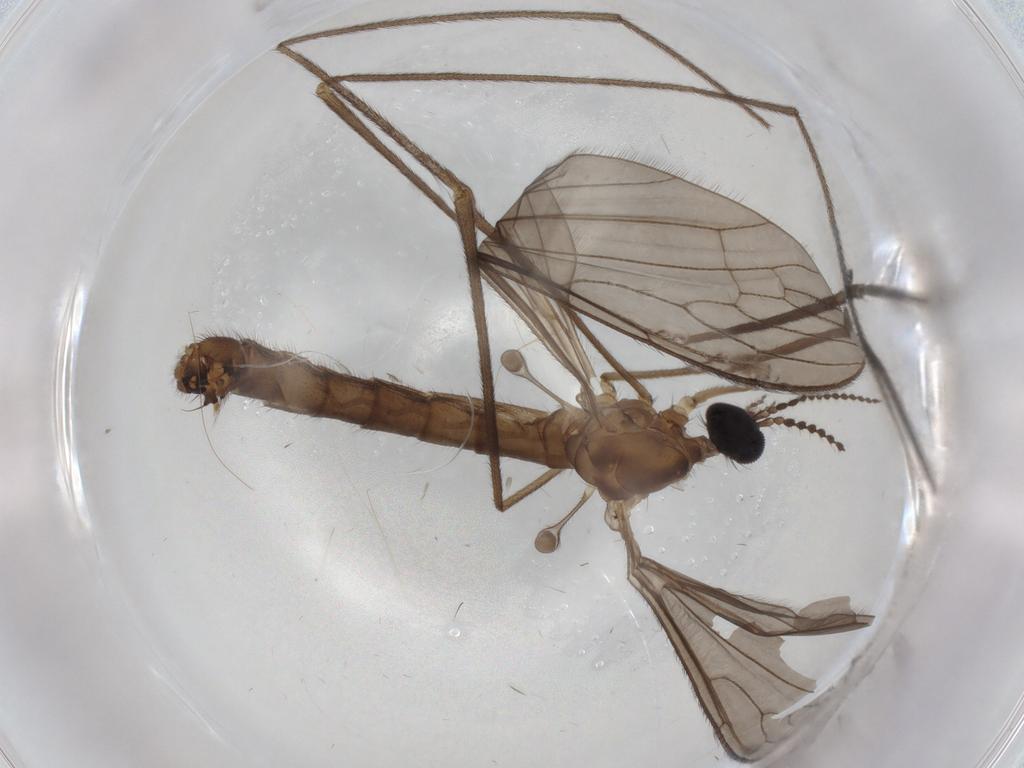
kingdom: Animalia
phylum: Arthropoda
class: Insecta
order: Diptera
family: Limoniidae
